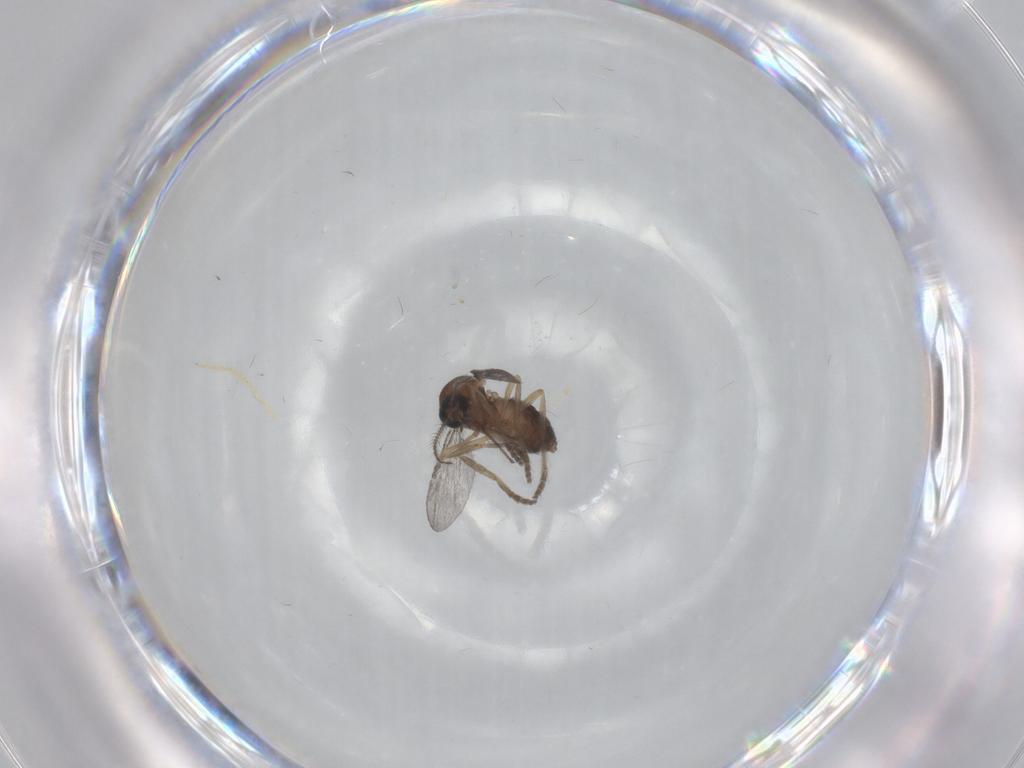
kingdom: Animalia
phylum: Arthropoda
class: Insecta
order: Diptera
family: Ceratopogonidae
